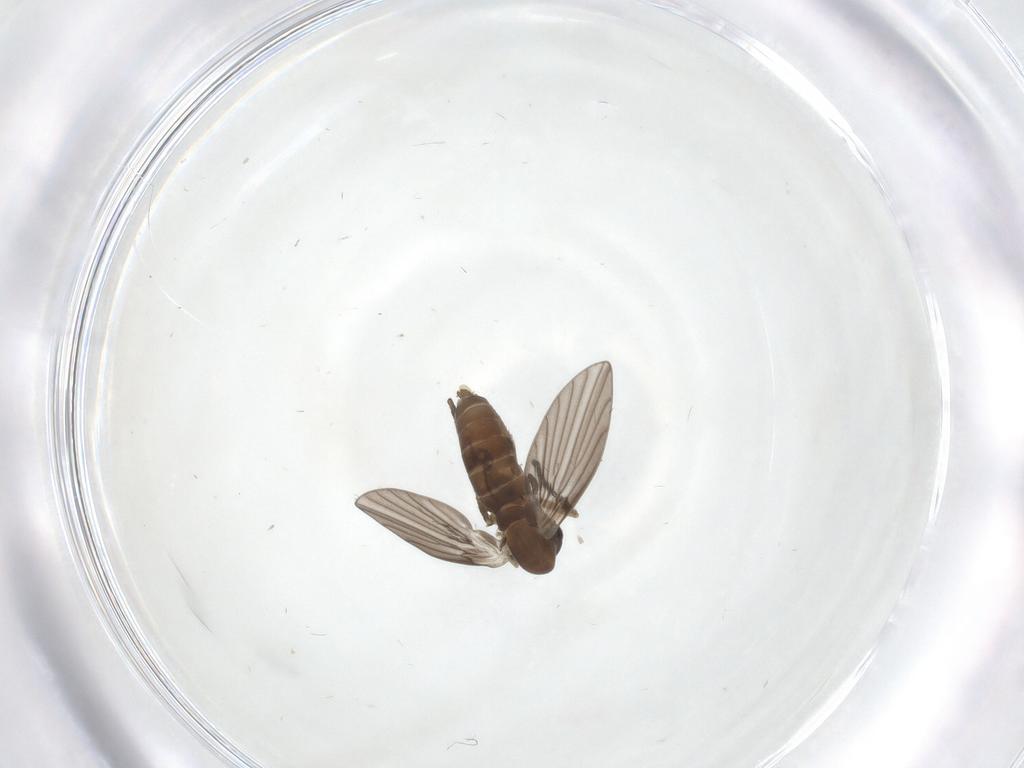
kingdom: Animalia
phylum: Arthropoda
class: Insecta
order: Diptera
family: Psychodidae
